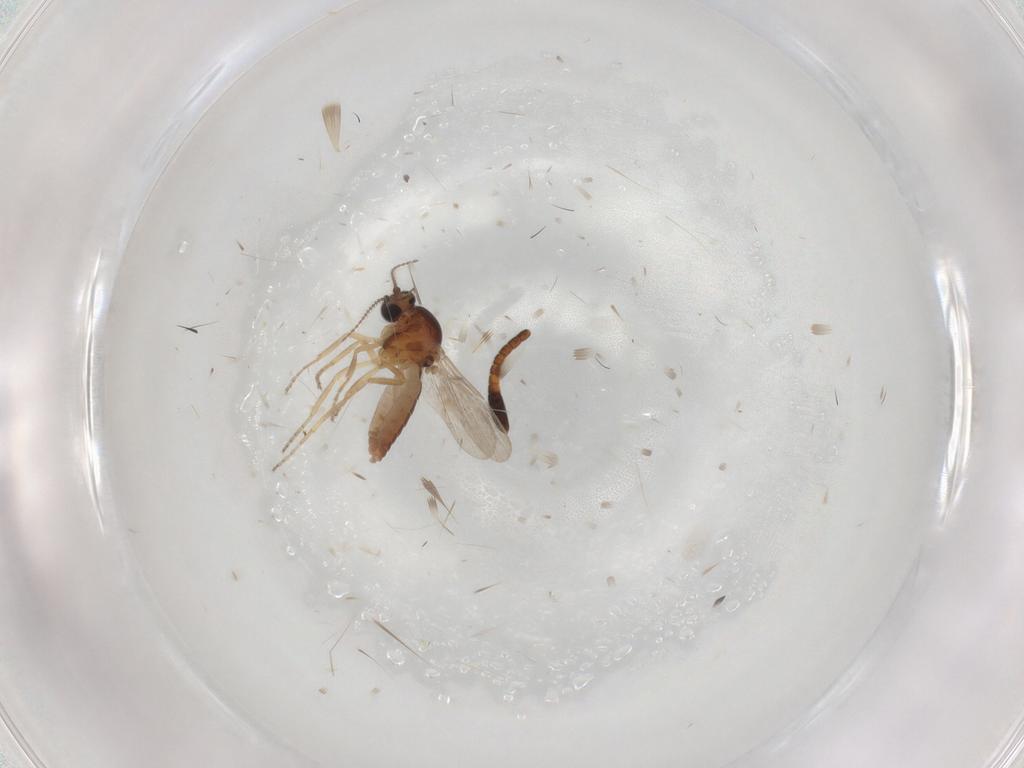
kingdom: Animalia
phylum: Arthropoda
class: Insecta
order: Diptera
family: Ceratopogonidae
